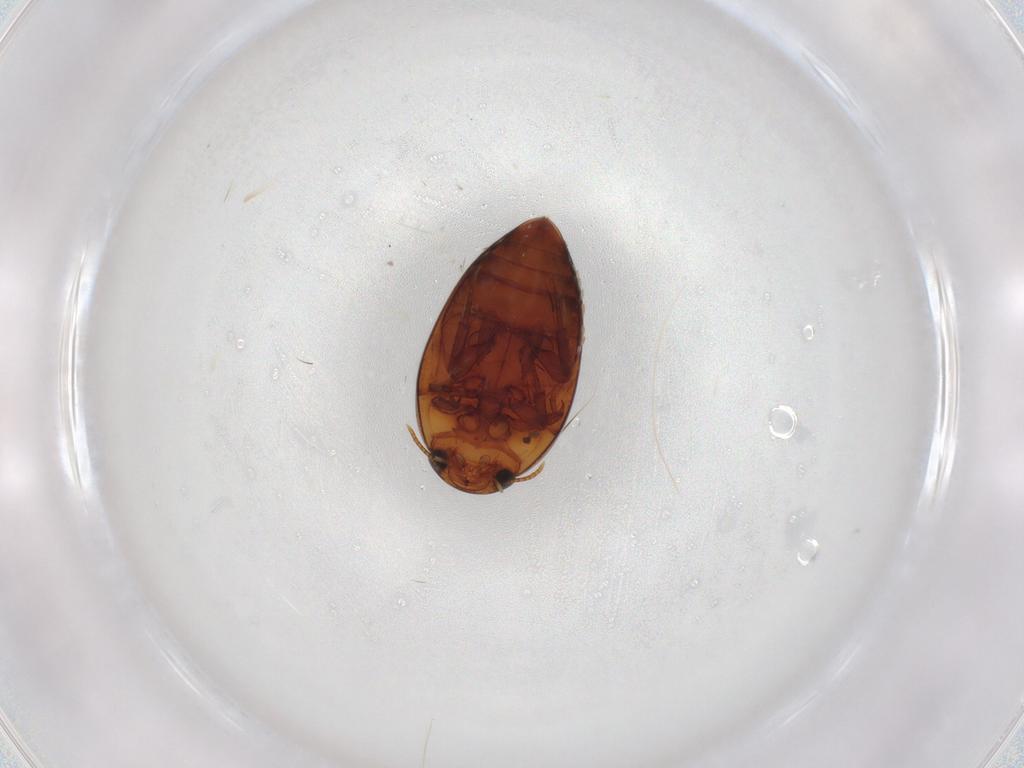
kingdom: Animalia
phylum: Arthropoda
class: Insecta
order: Coleoptera
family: Noteridae
